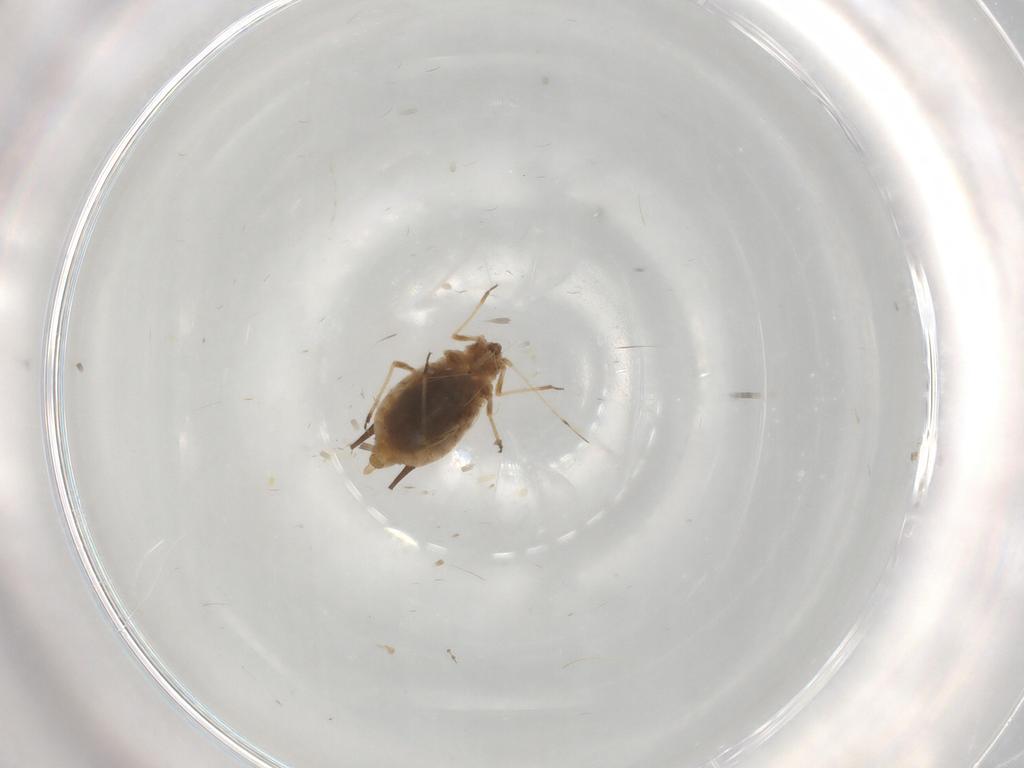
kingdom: Animalia
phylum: Arthropoda
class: Insecta
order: Hemiptera
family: Aphididae
